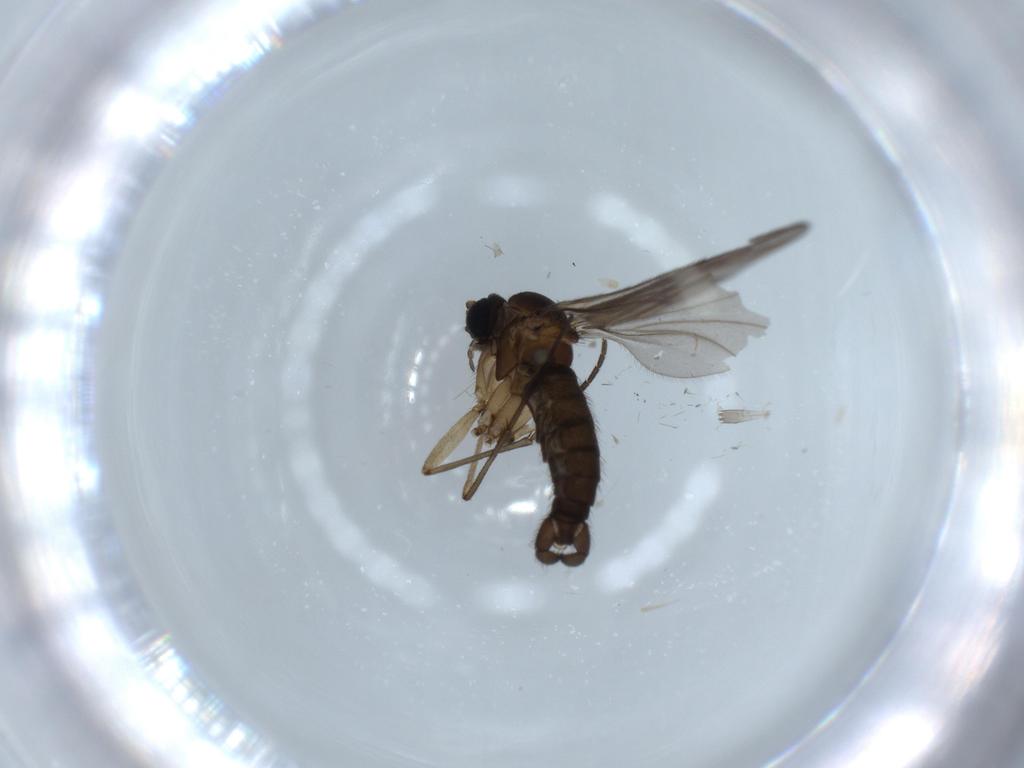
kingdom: Animalia
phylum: Arthropoda
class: Insecta
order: Diptera
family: Sciaridae
